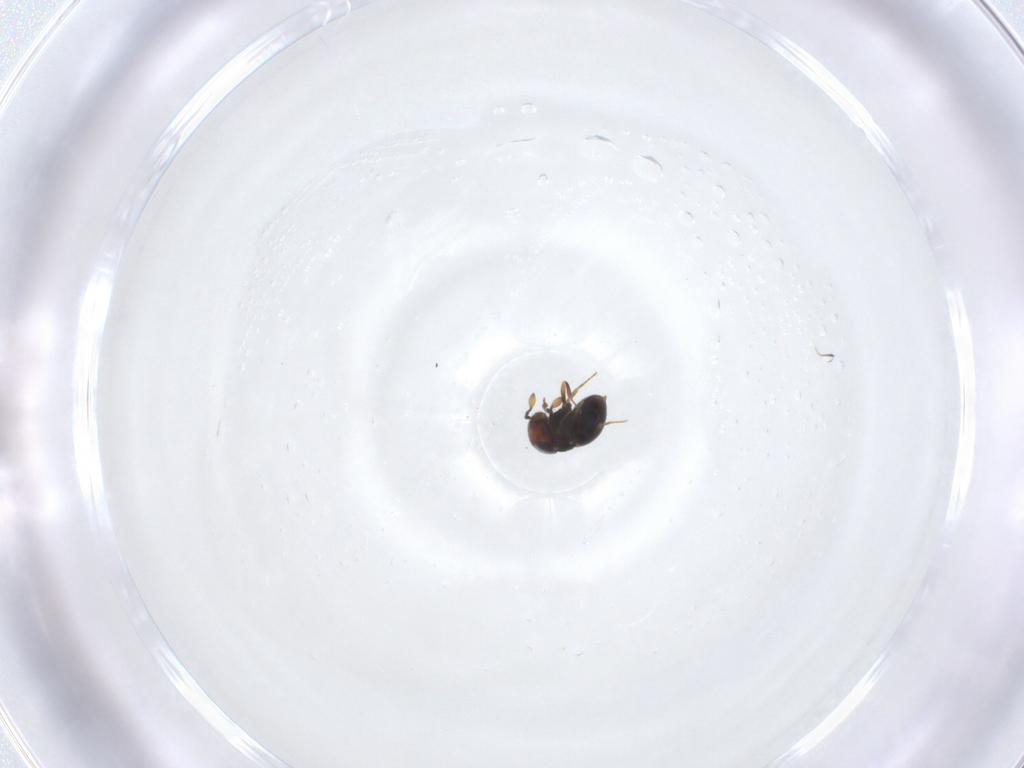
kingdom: Animalia
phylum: Arthropoda
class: Insecta
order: Hymenoptera
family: Scelionidae
